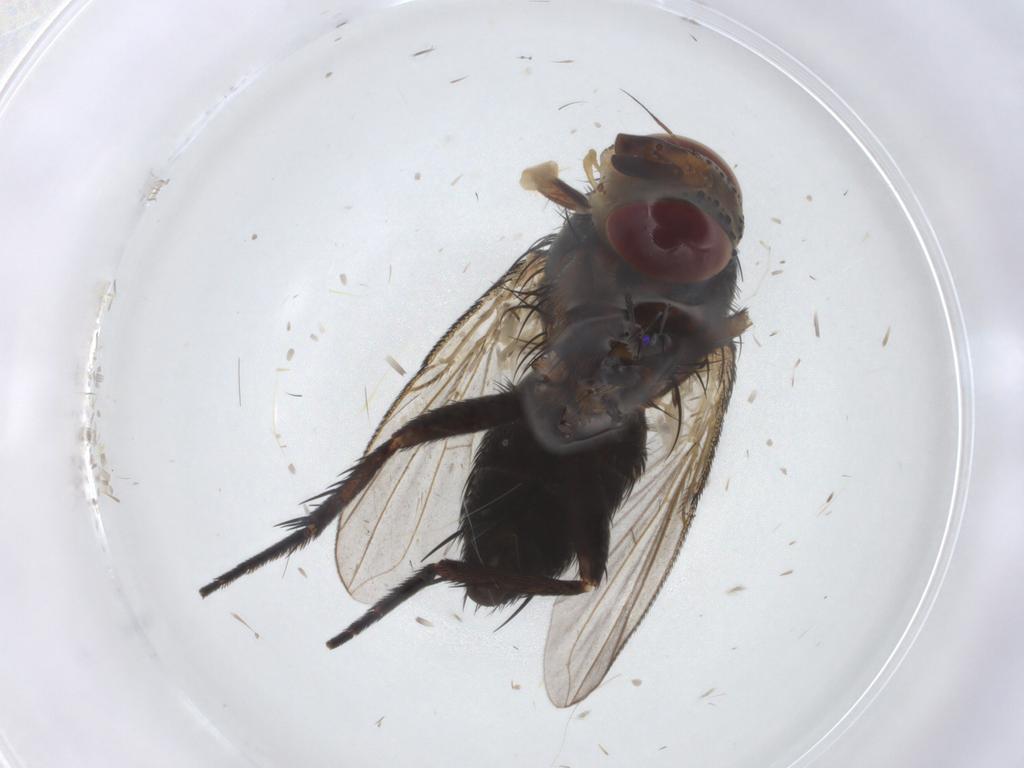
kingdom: Animalia
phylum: Arthropoda
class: Insecta
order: Diptera
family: Tachinidae
